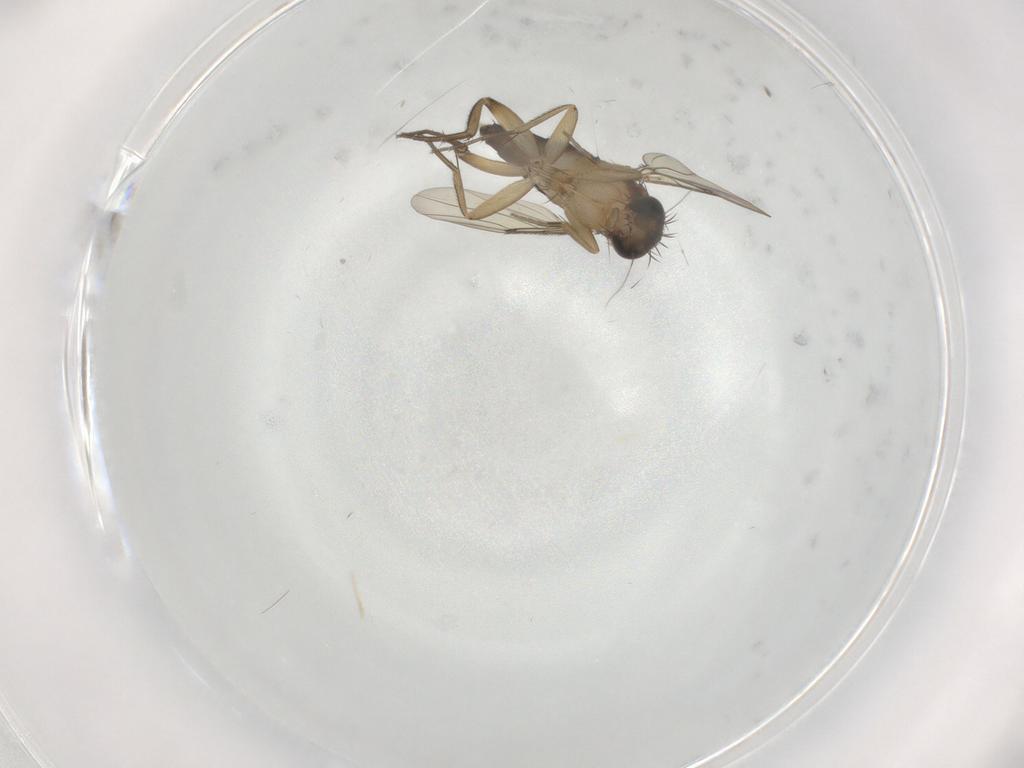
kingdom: Animalia
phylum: Arthropoda
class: Insecta
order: Diptera
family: Phoridae
